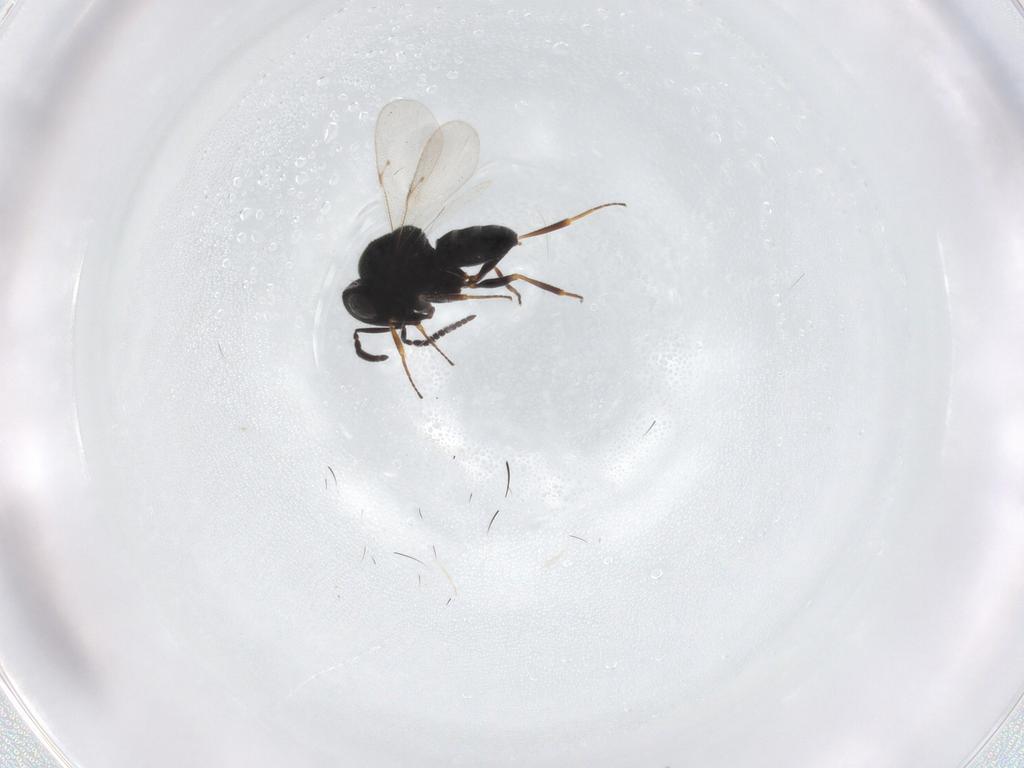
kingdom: Animalia
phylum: Arthropoda
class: Insecta
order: Hymenoptera
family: Scelionidae
